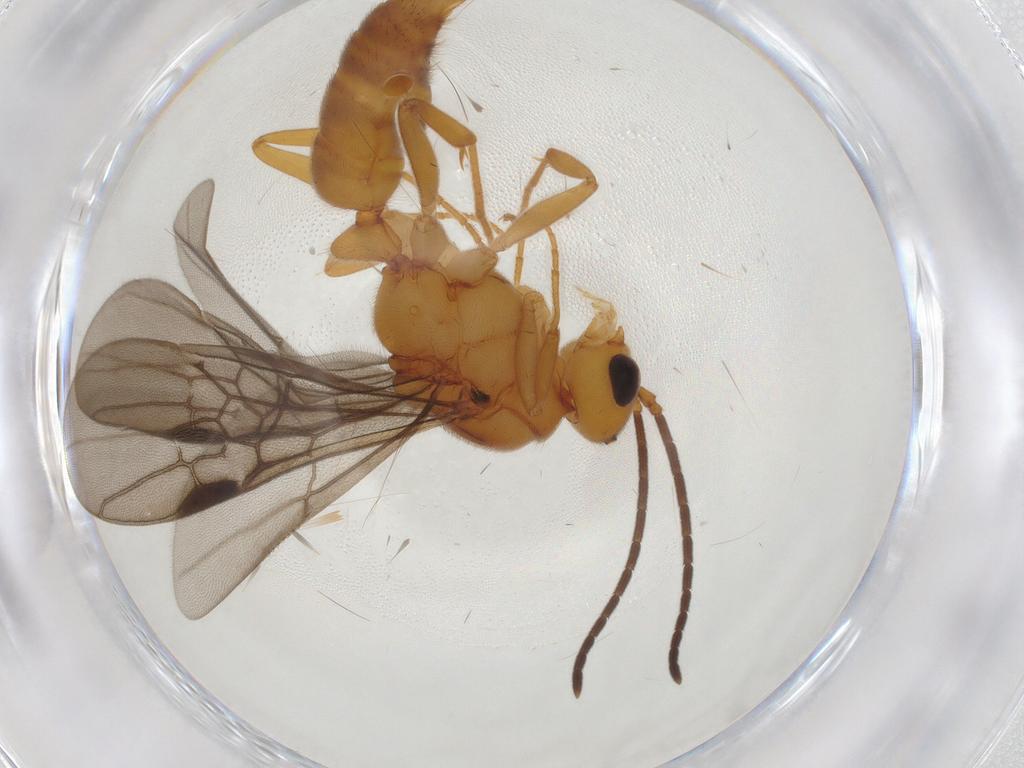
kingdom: Animalia
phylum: Arthropoda
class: Insecta
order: Hymenoptera
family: Formicidae
